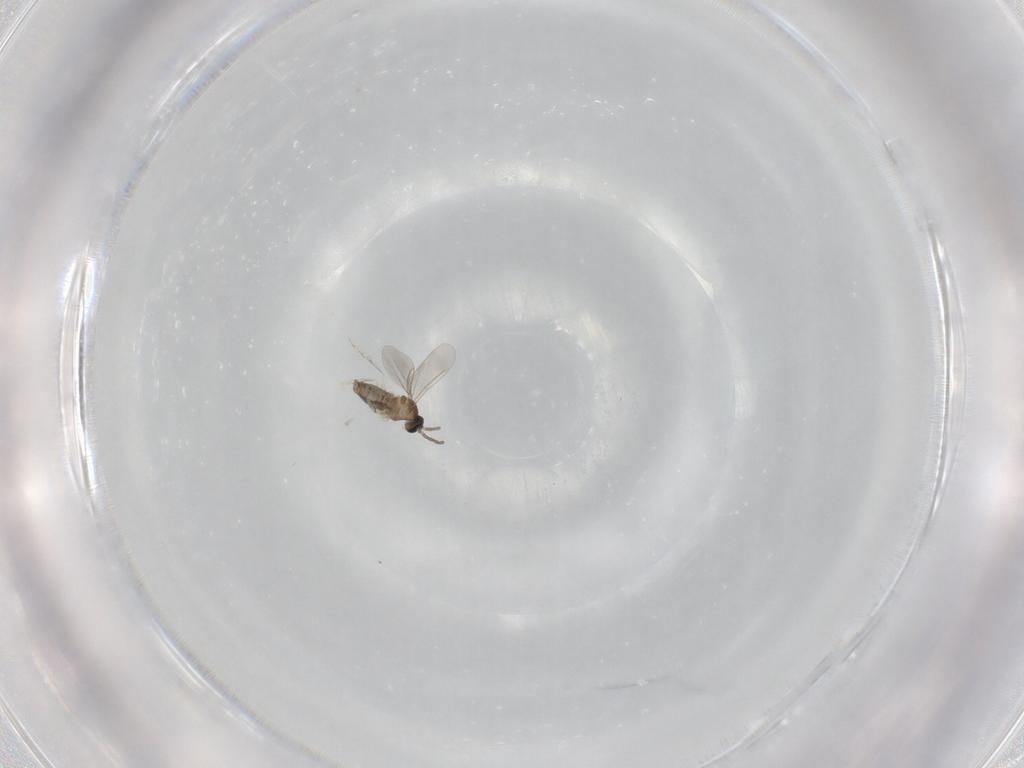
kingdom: Animalia
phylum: Arthropoda
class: Insecta
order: Diptera
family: Cecidomyiidae
